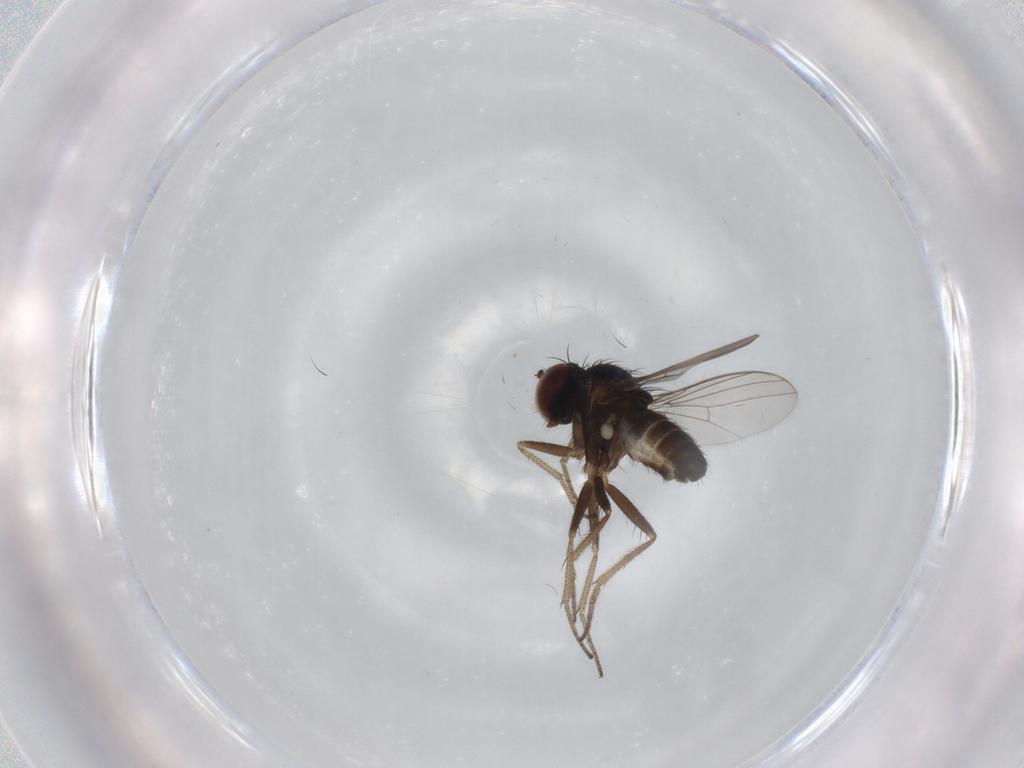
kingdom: Animalia
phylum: Arthropoda
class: Insecta
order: Diptera
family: Dolichopodidae
